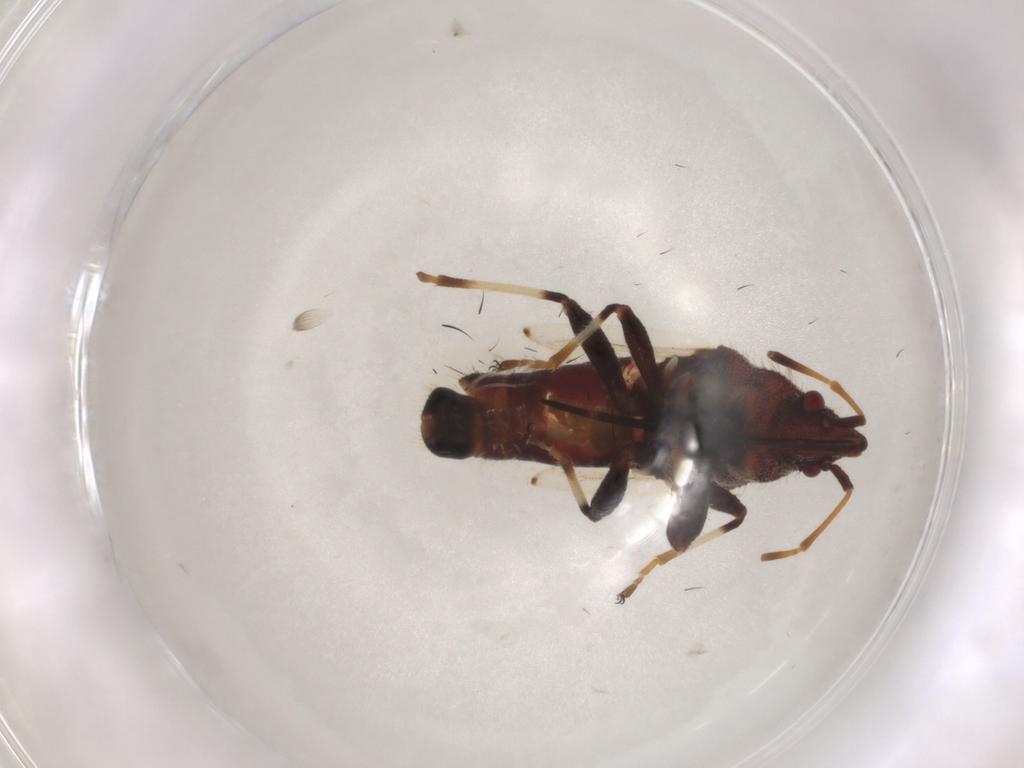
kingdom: Animalia
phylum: Arthropoda
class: Insecta
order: Hemiptera
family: Oxycarenidae
